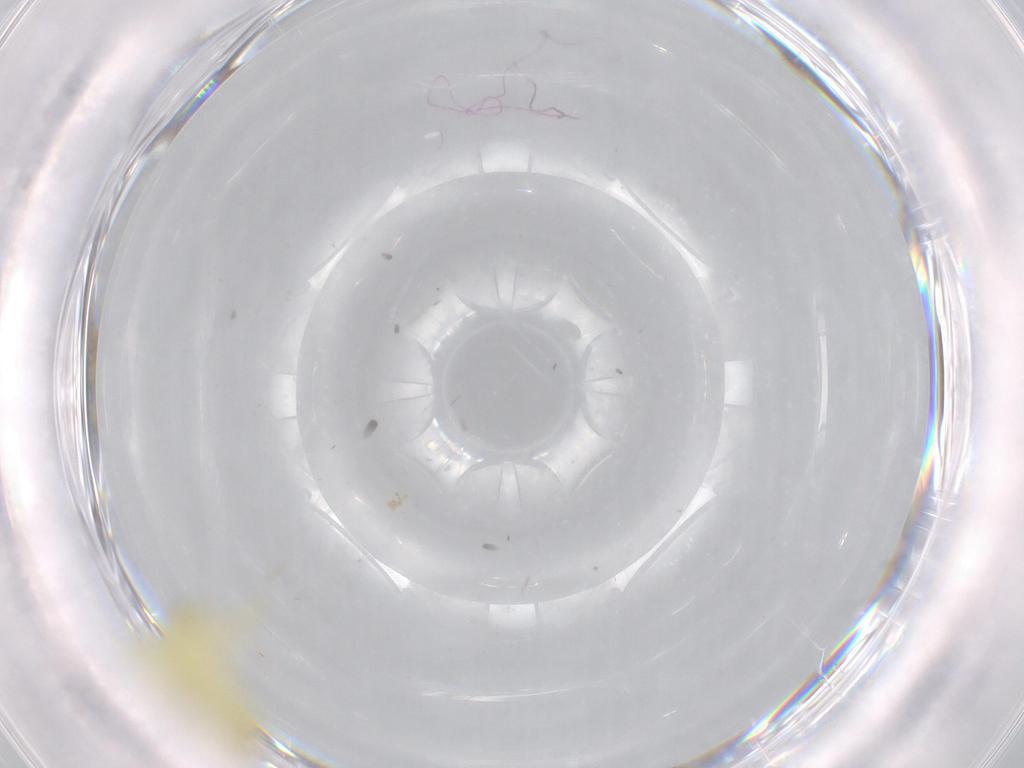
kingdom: Animalia
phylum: Arthropoda
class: Insecta
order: Hemiptera
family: Cicadellidae
